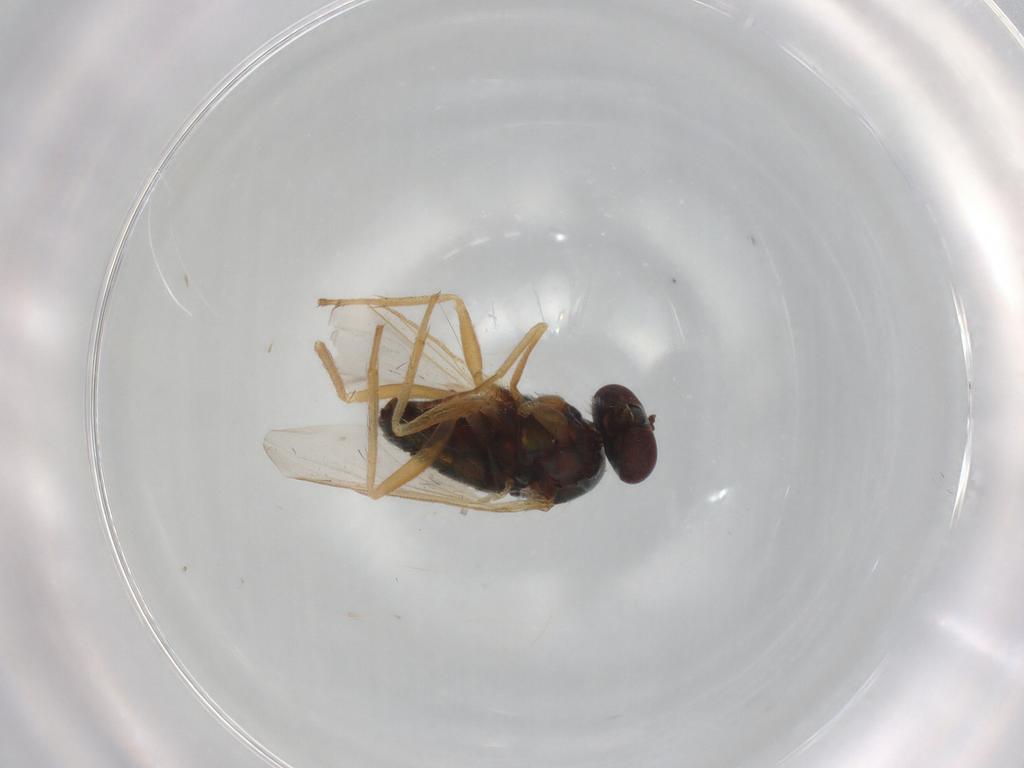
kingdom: Animalia
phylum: Arthropoda
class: Insecta
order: Diptera
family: Dolichopodidae
